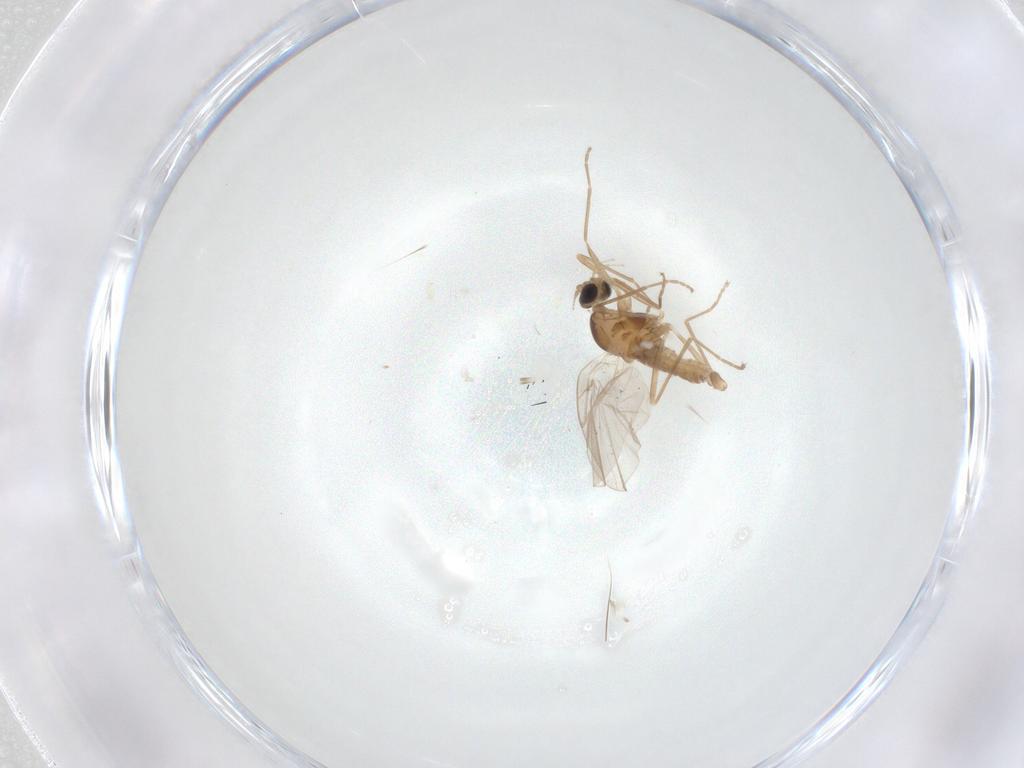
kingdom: Animalia
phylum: Arthropoda
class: Insecta
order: Diptera
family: Cecidomyiidae
